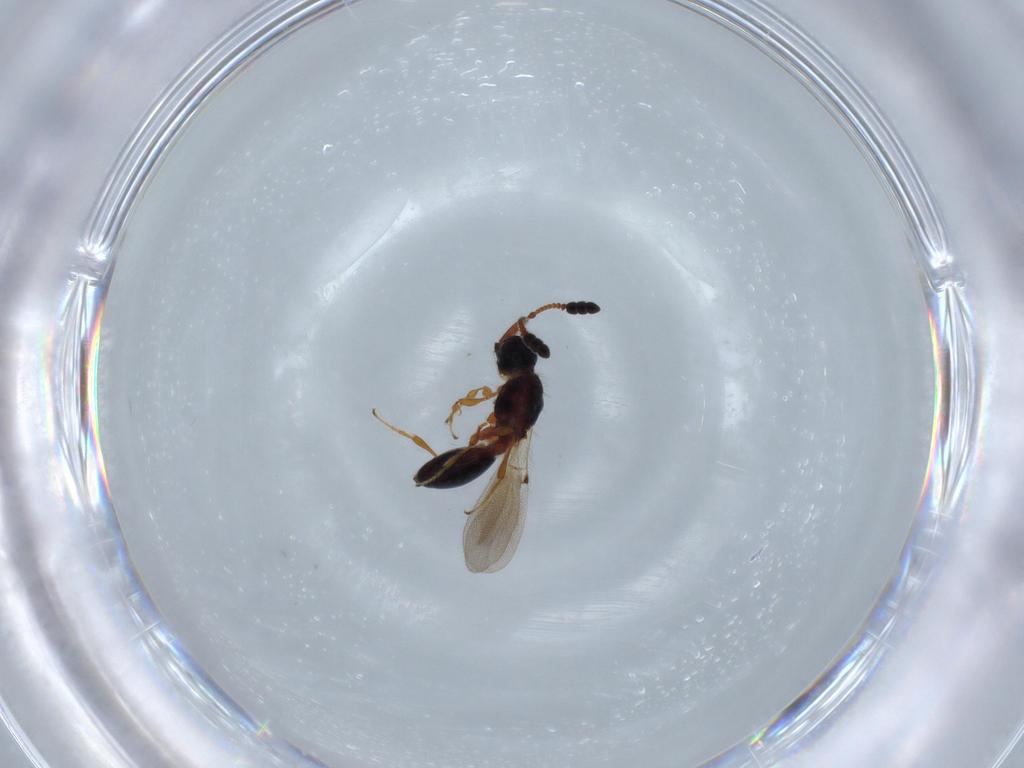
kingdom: Animalia
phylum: Arthropoda
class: Insecta
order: Hymenoptera
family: Diapriidae
